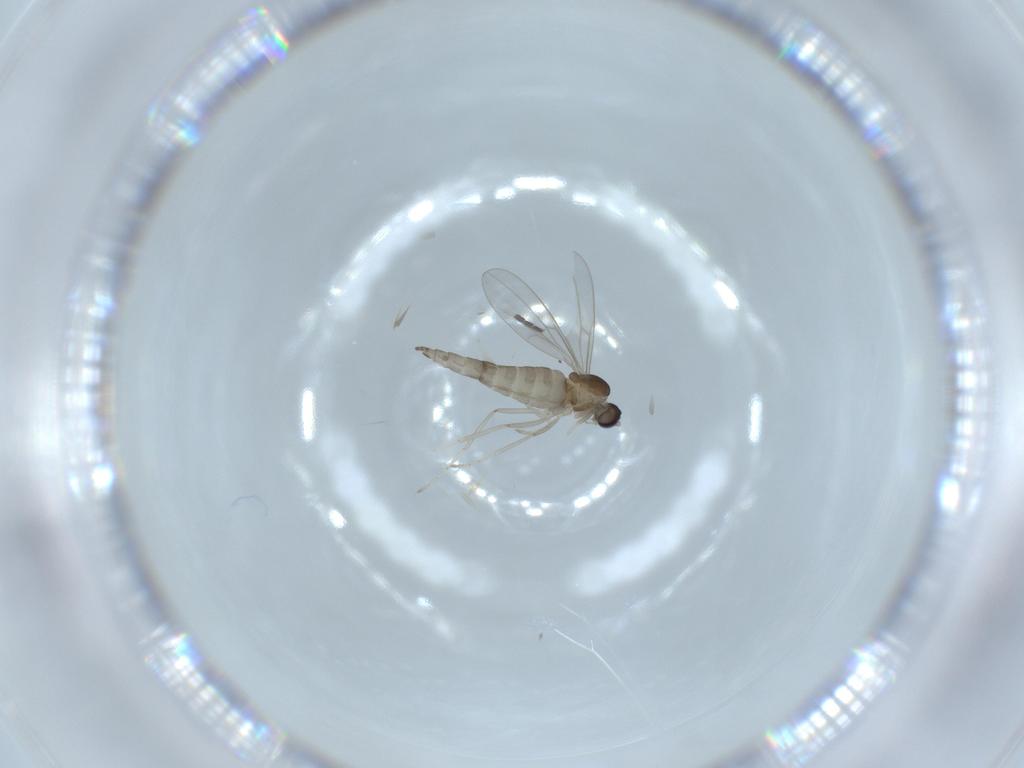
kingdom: Animalia
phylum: Arthropoda
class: Insecta
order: Diptera
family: Cecidomyiidae
